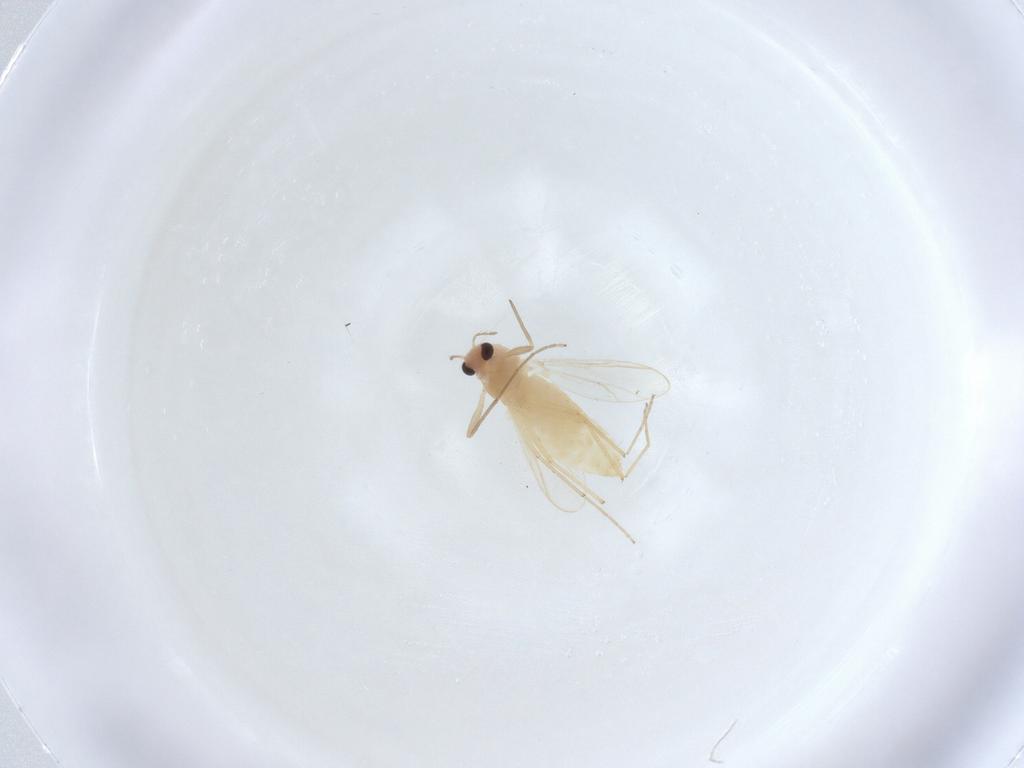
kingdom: Animalia
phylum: Arthropoda
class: Insecta
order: Diptera
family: Chironomidae
